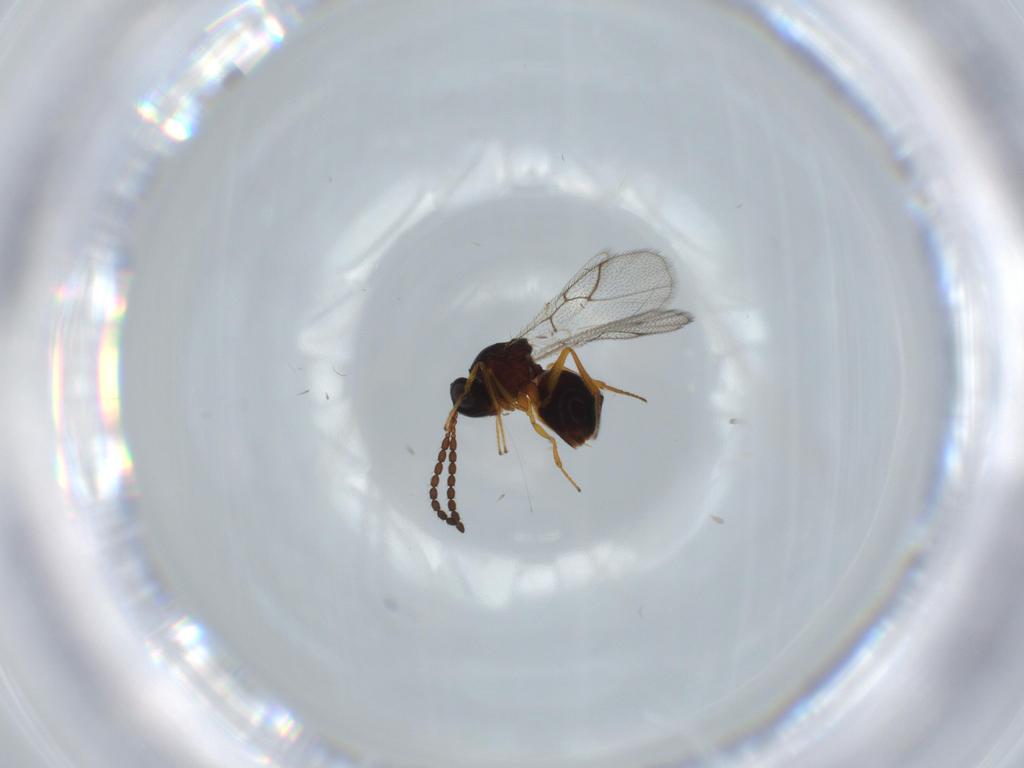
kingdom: Animalia
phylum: Arthropoda
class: Insecta
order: Hymenoptera
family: Figitidae
